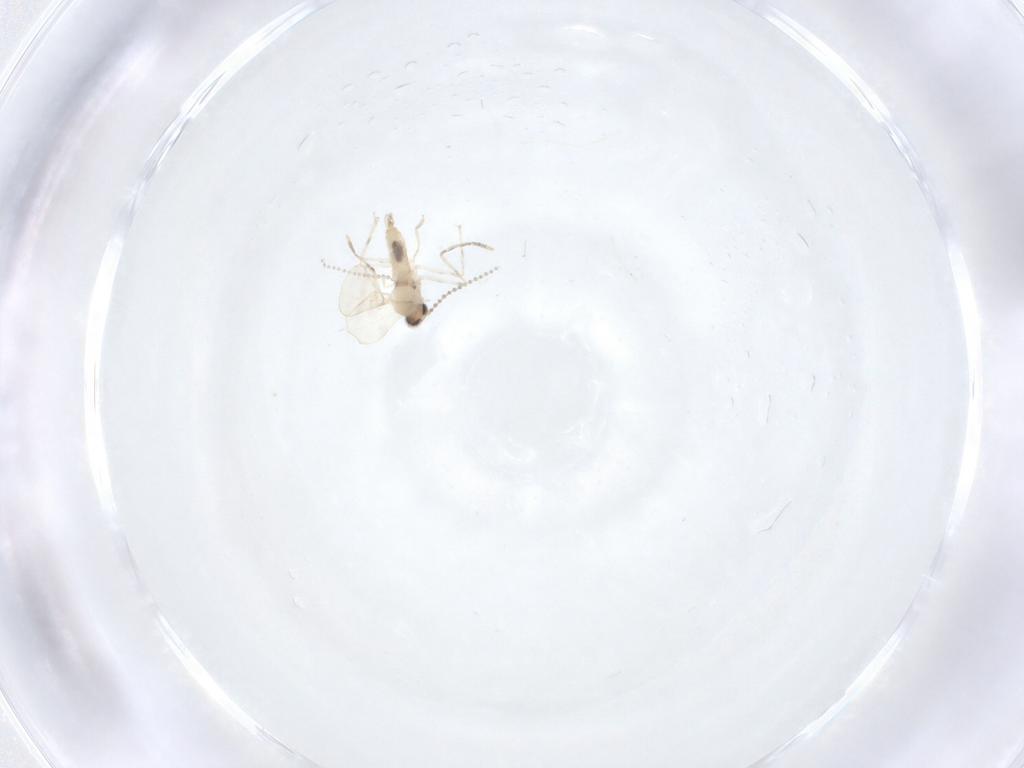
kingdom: Animalia
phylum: Arthropoda
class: Insecta
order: Diptera
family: Cecidomyiidae
